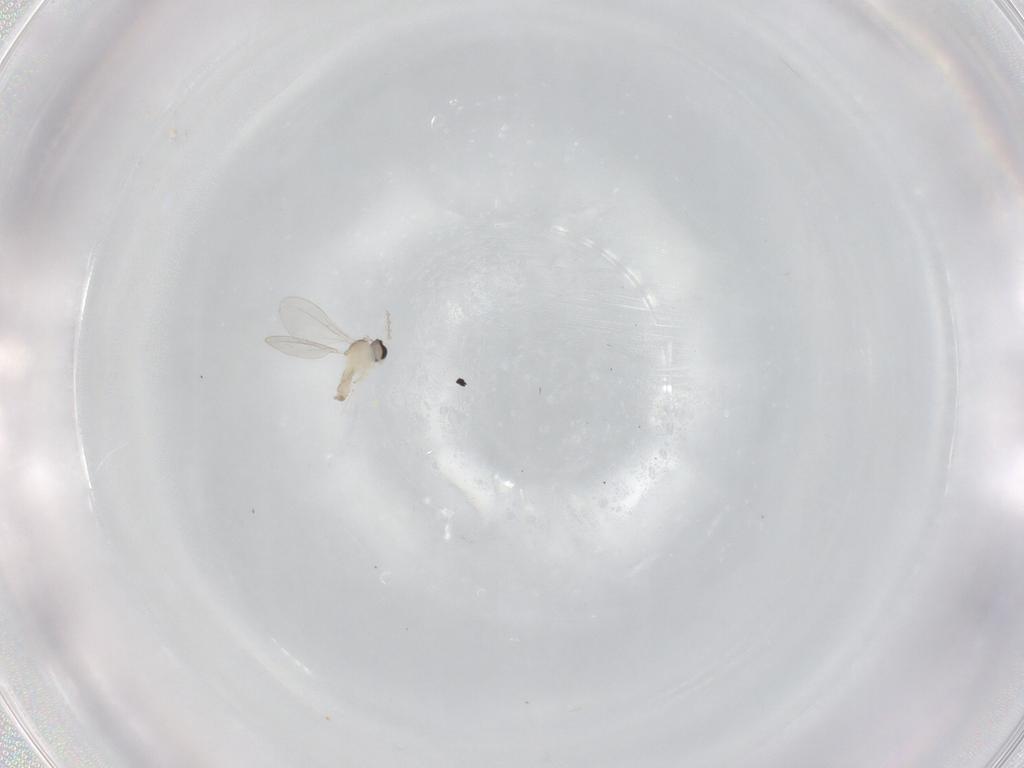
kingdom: Animalia
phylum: Arthropoda
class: Insecta
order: Diptera
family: Cecidomyiidae
